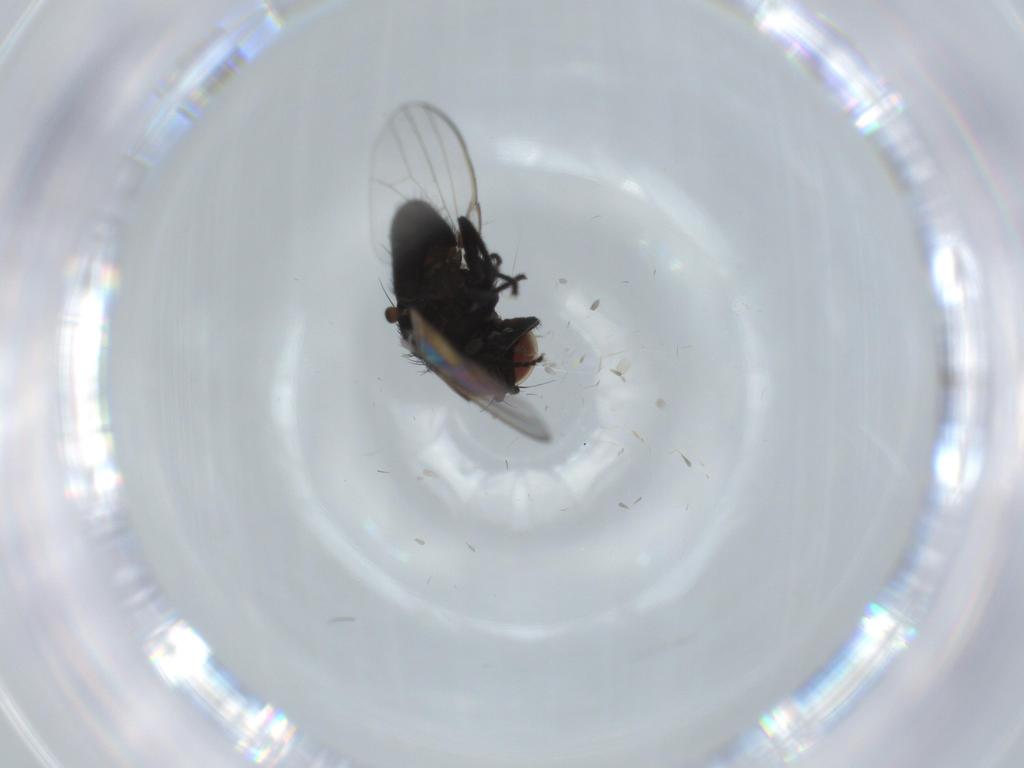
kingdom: Animalia
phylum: Arthropoda
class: Insecta
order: Diptera
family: Milichiidae
